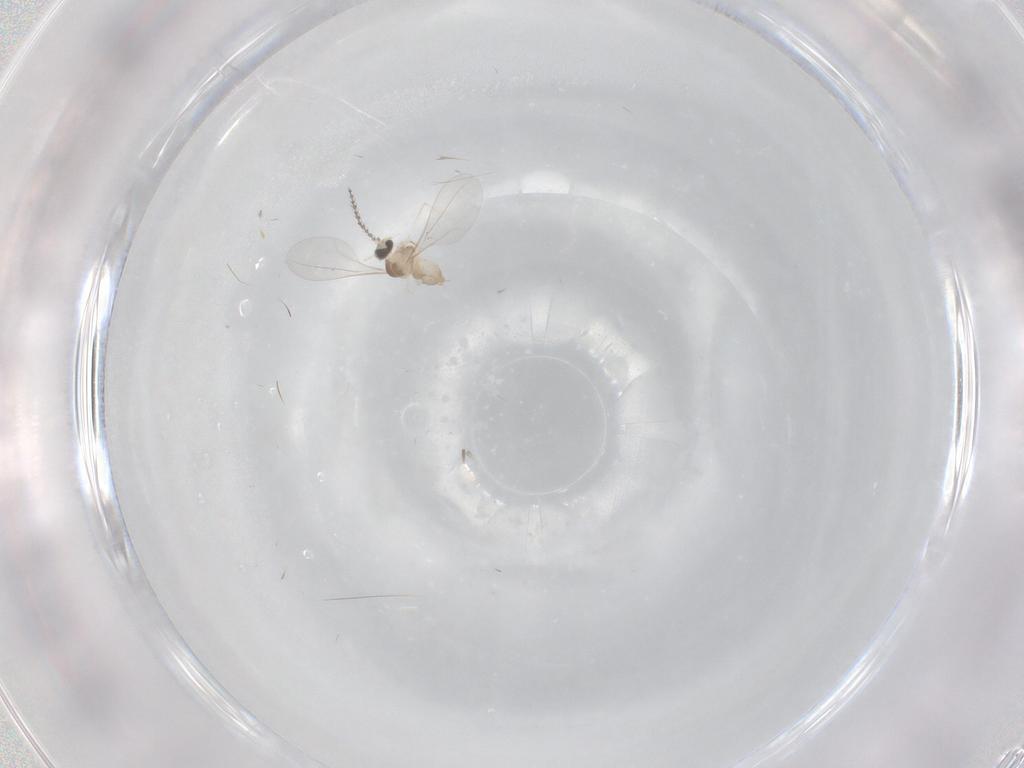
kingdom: Animalia
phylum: Arthropoda
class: Insecta
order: Diptera
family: Cecidomyiidae
